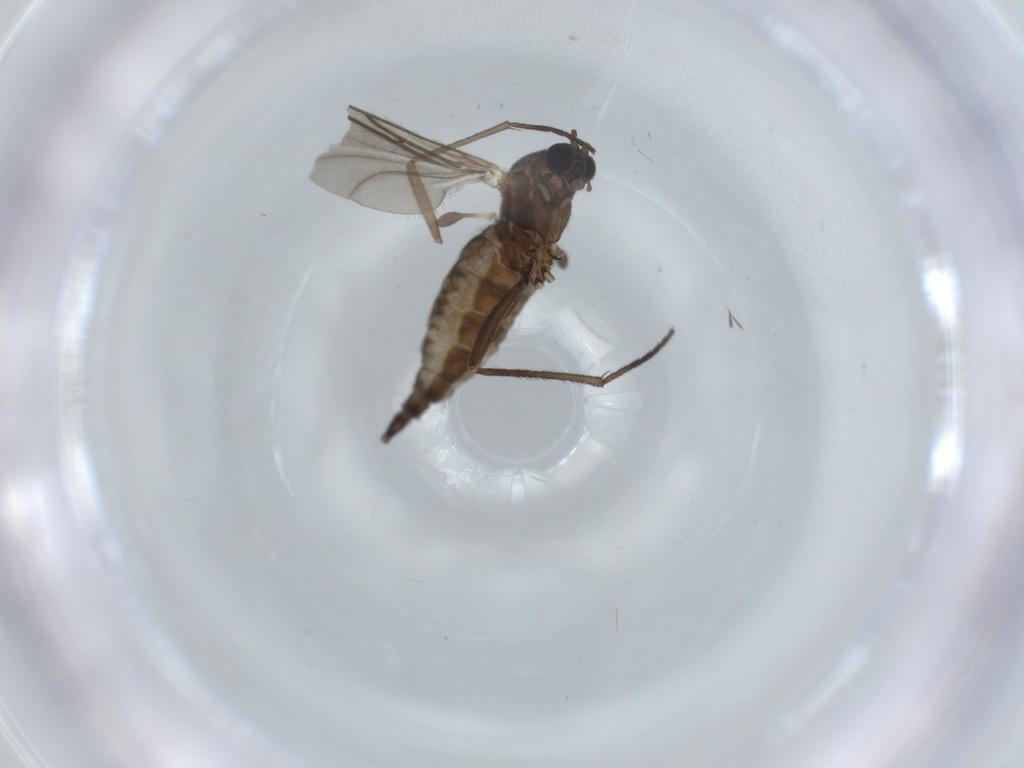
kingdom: Animalia
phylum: Arthropoda
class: Insecta
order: Diptera
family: Sciaridae
